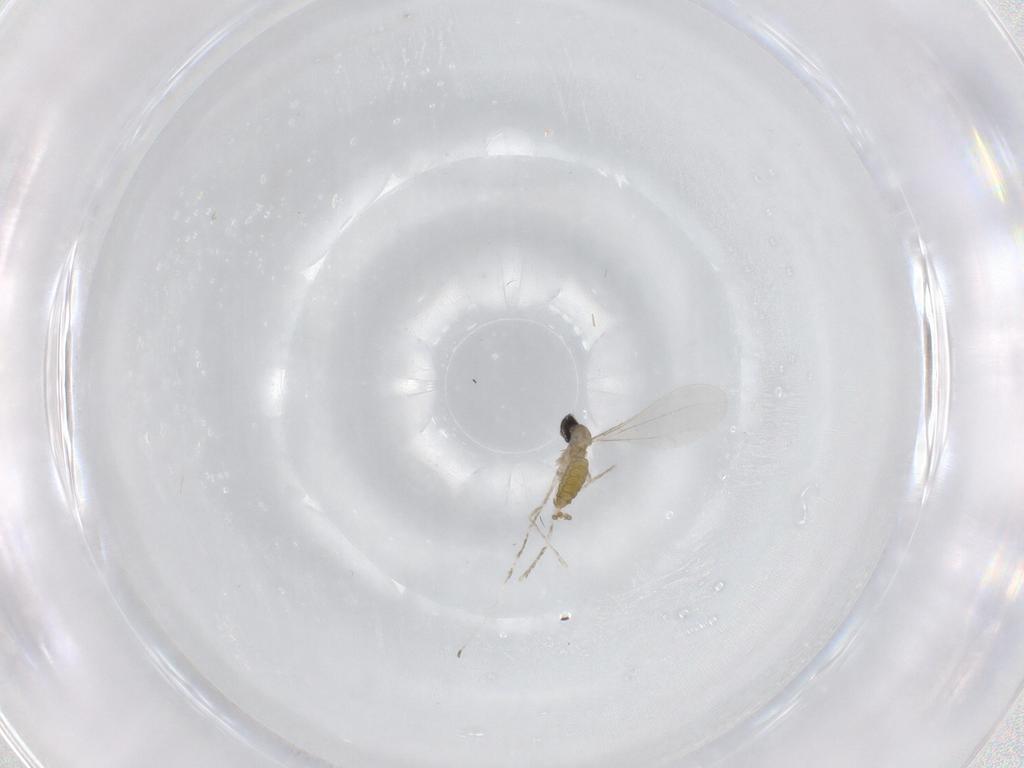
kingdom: Animalia
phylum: Arthropoda
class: Insecta
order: Diptera
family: Cecidomyiidae
